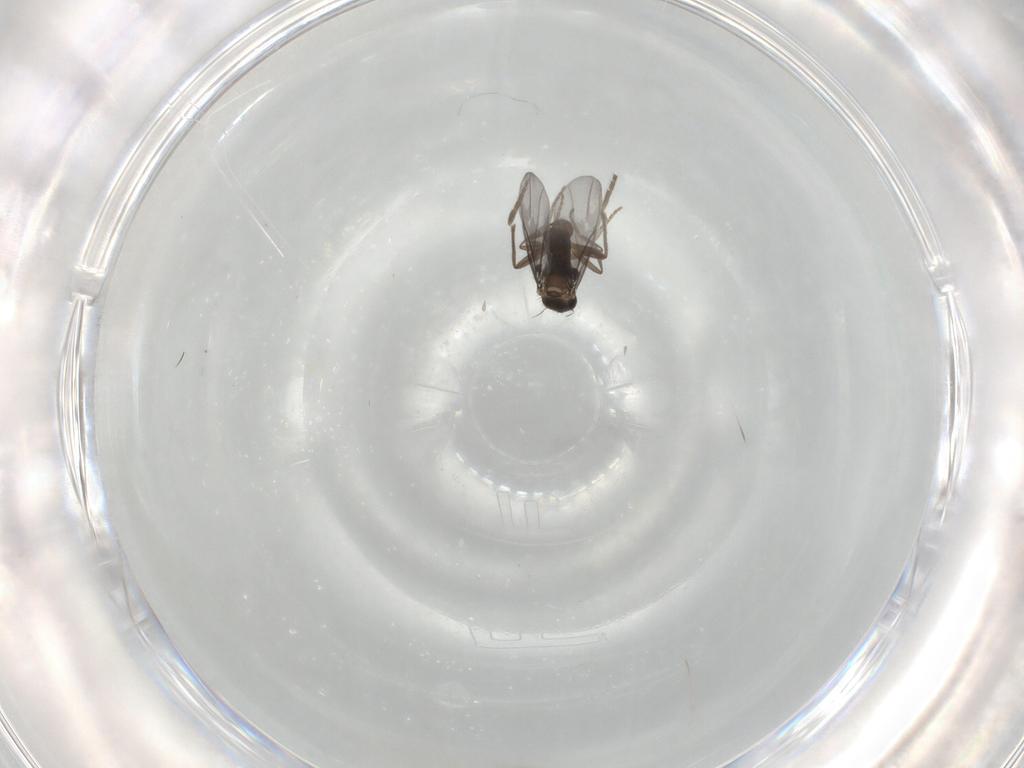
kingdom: Animalia
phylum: Arthropoda
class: Insecta
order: Diptera
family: Phoridae
